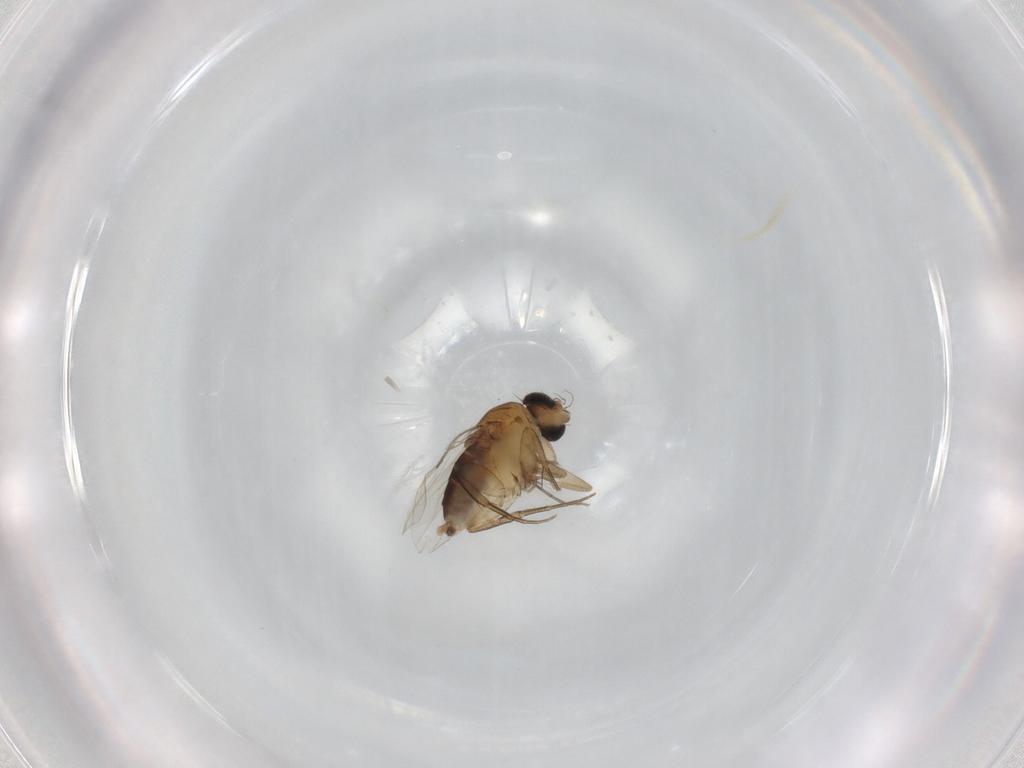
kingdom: Animalia
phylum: Arthropoda
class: Insecta
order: Diptera
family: Phoridae
